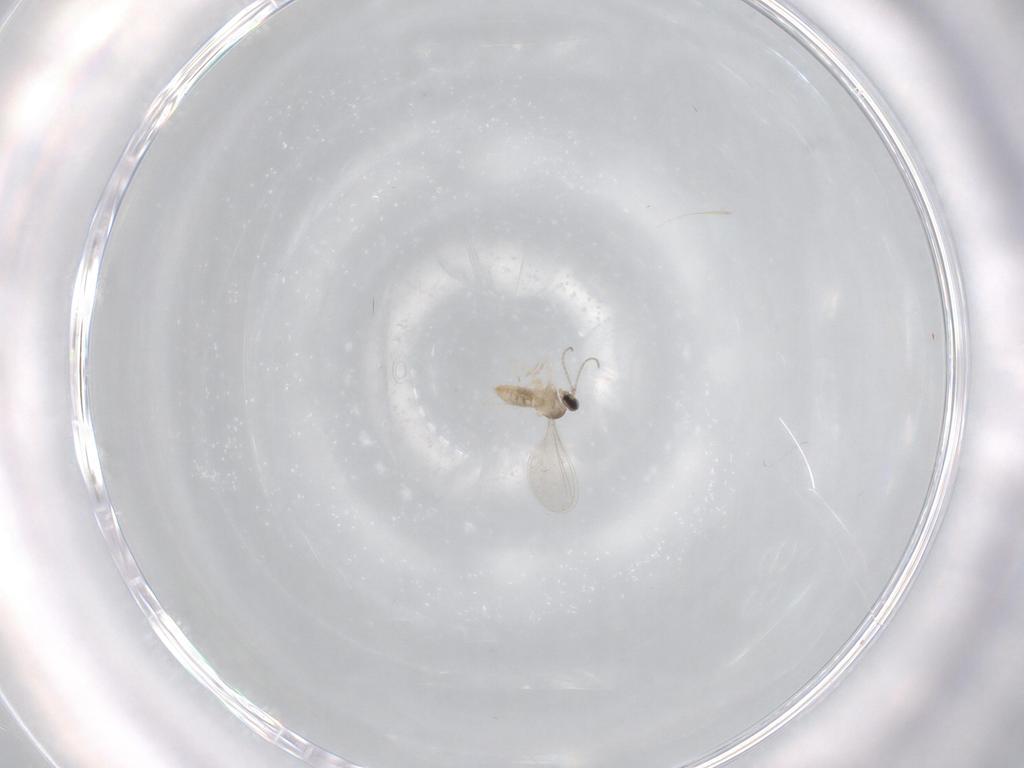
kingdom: Animalia
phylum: Arthropoda
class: Insecta
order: Diptera
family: Cecidomyiidae
